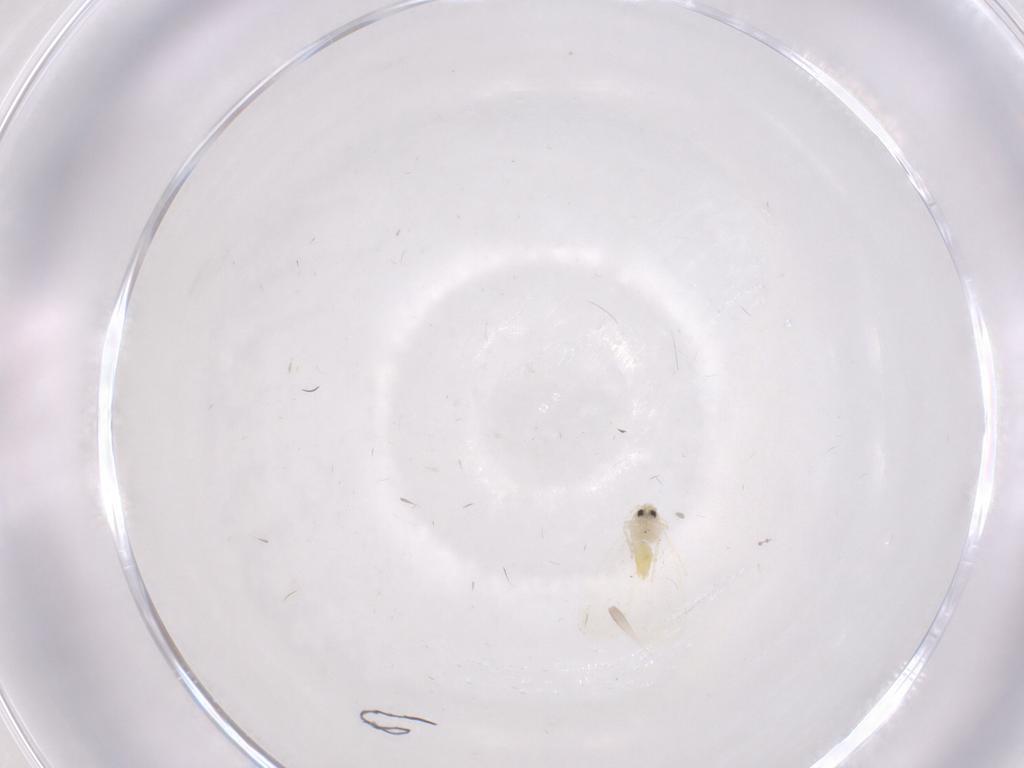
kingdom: Animalia
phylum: Arthropoda
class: Insecta
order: Hemiptera
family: Aleyrodidae
